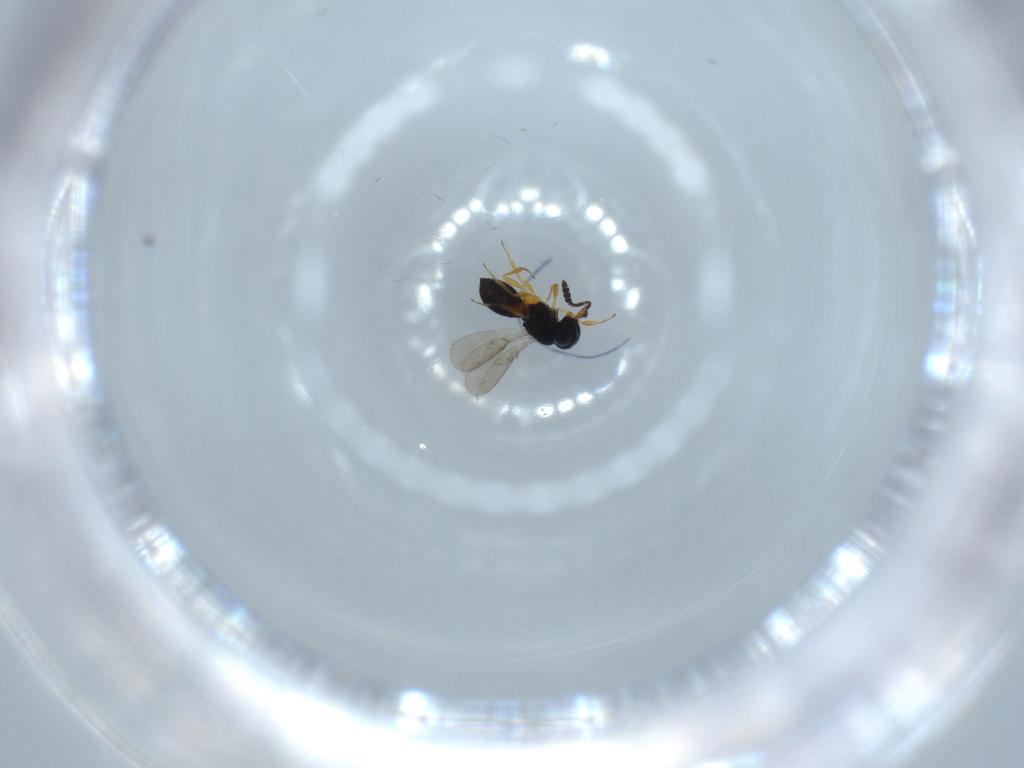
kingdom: Animalia
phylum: Arthropoda
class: Insecta
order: Hymenoptera
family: Scelionidae
